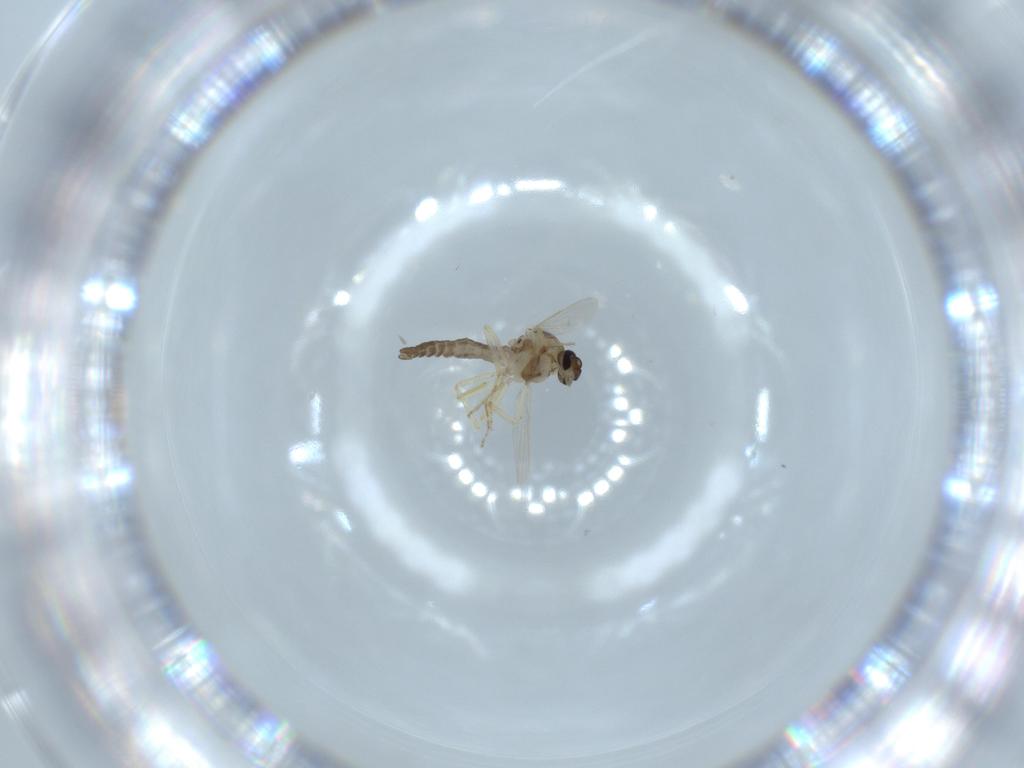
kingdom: Animalia
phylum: Arthropoda
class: Insecta
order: Diptera
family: Ceratopogonidae
